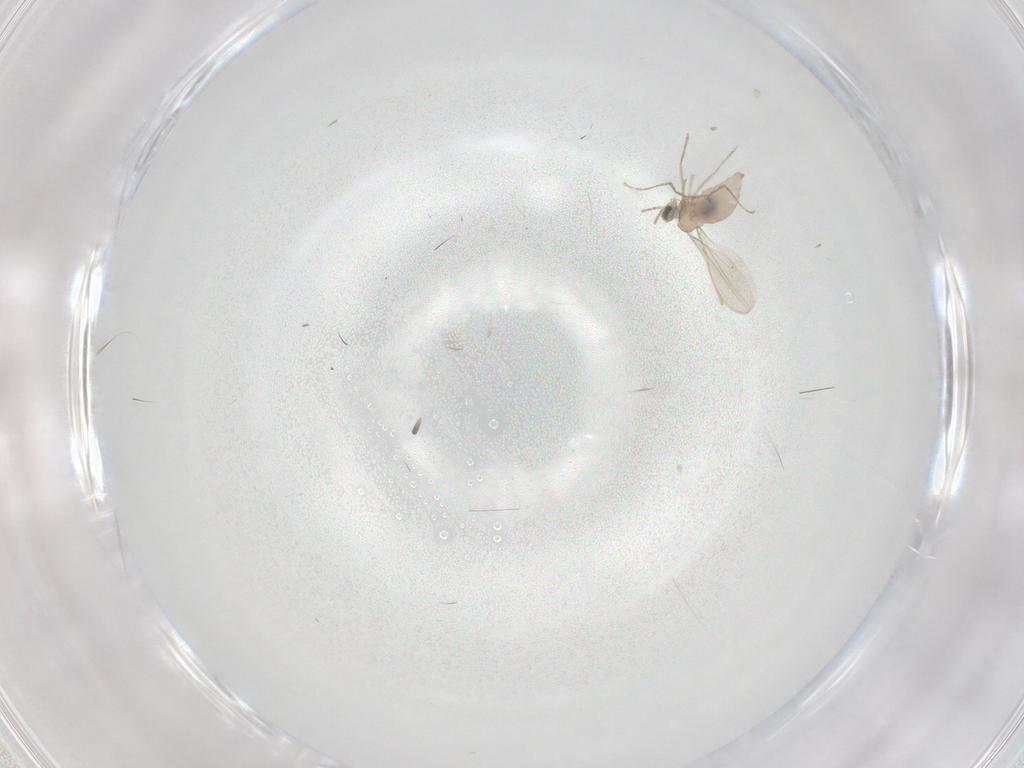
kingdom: Animalia
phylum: Arthropoda
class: Insecta
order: Diptera
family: Cecidomyiidae
